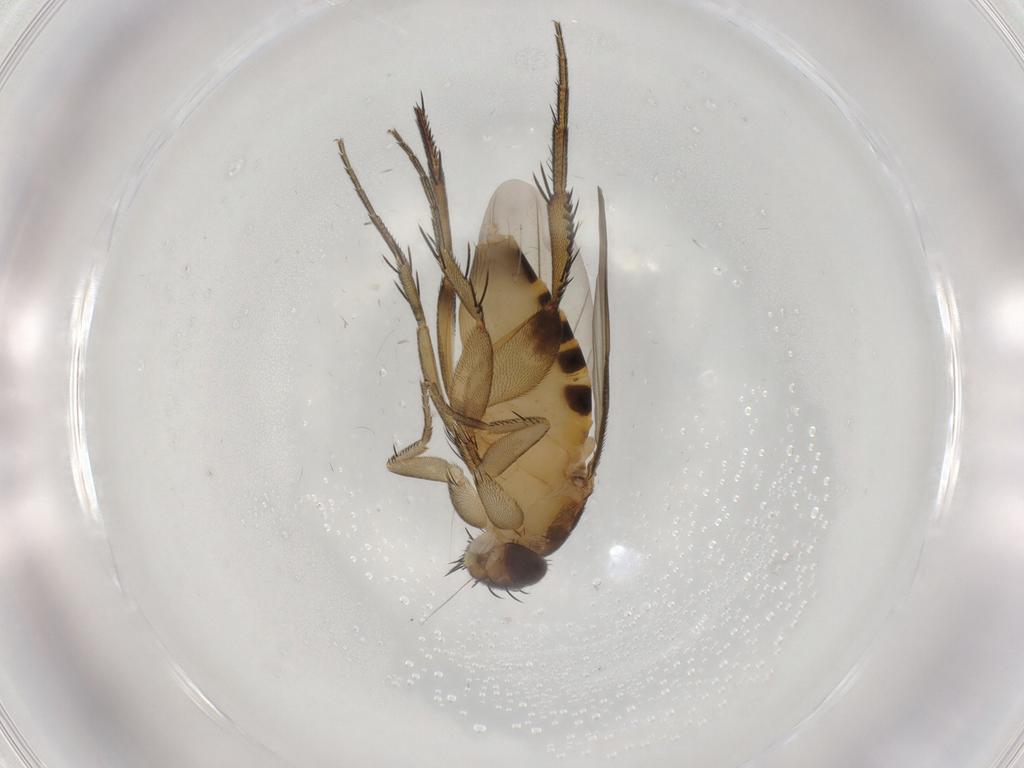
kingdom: Animalia
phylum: Arthropoda
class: Insecta
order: Diptera
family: Phoridae
